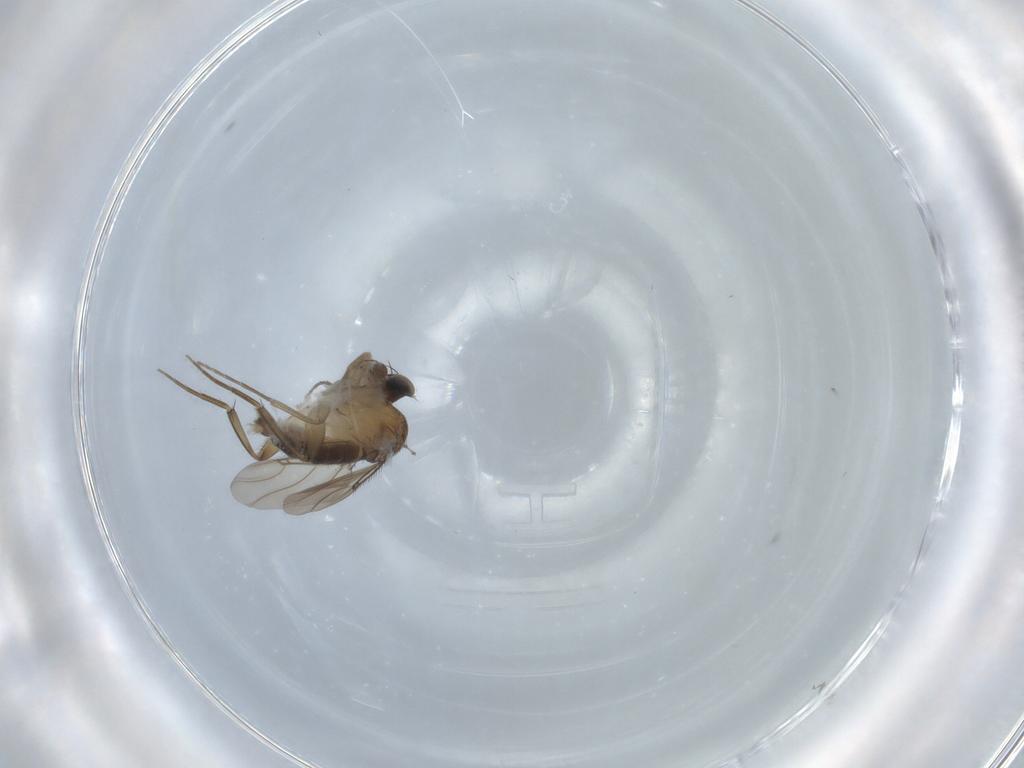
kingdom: Animalia
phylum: Arthropoda
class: Insecta
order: Diptera
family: Phoridae
